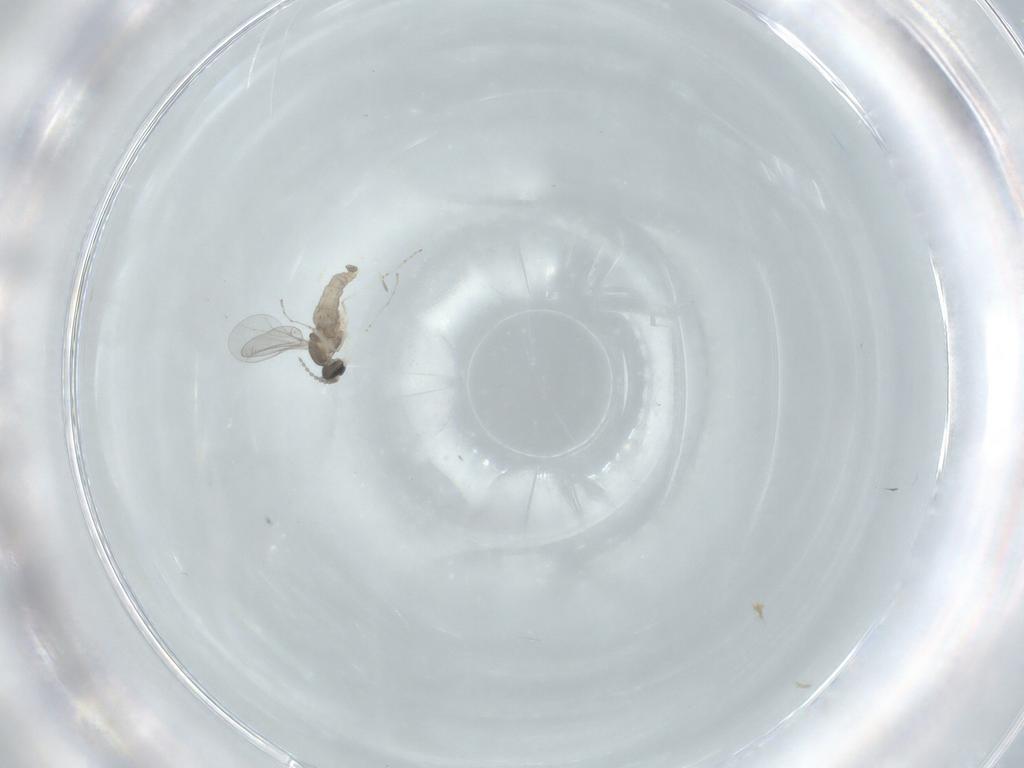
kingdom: Animalia
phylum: Arthropoda
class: Insecta
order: Diptera
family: Cecidomyiidae
